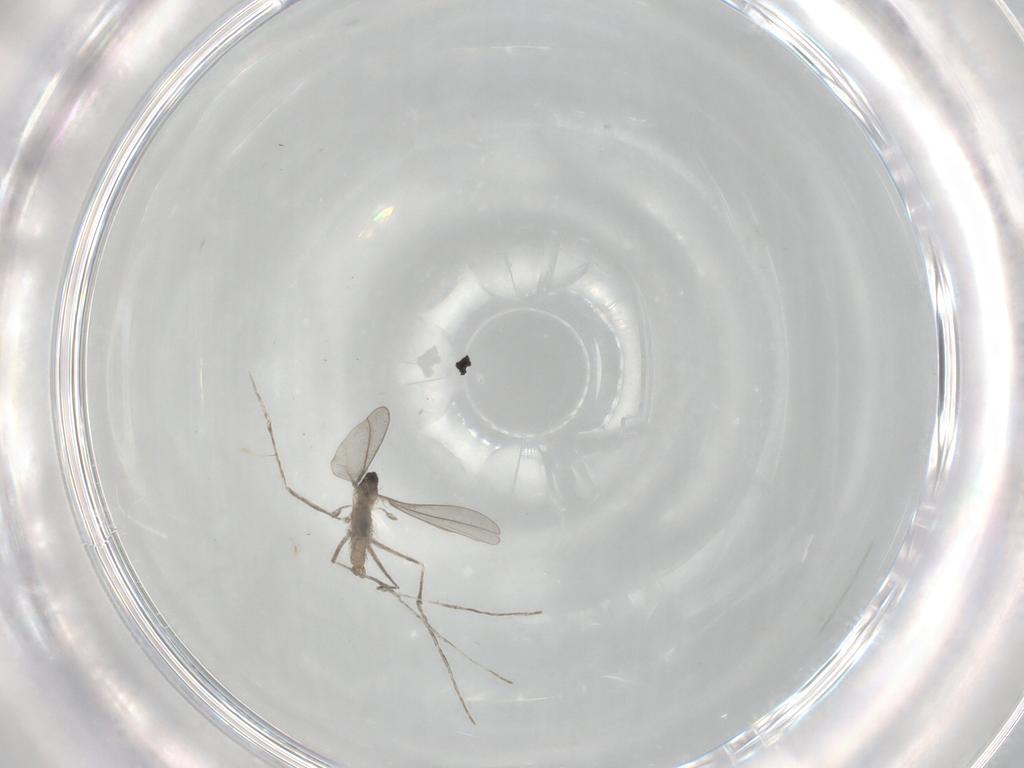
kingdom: Animalia
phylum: Arthropoda
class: Insecta
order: Diptera
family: Cecidomyiidae
